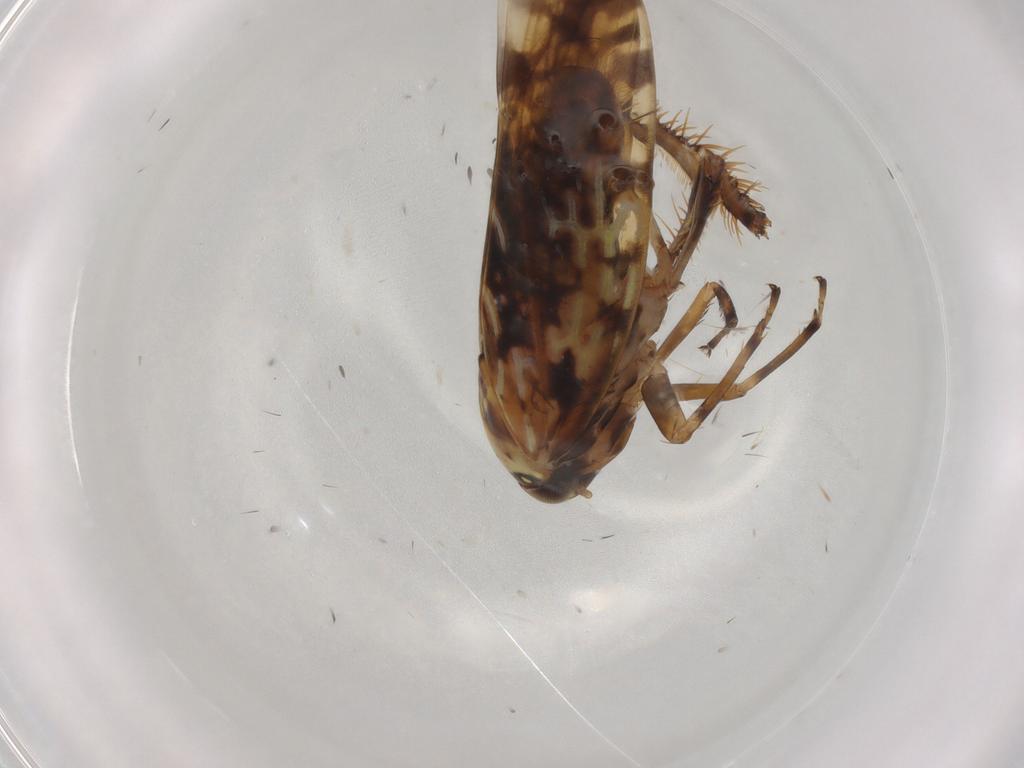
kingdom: Animalia
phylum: Arthropoda
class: Insecta
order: Hemiptera
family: Cicadellidae
